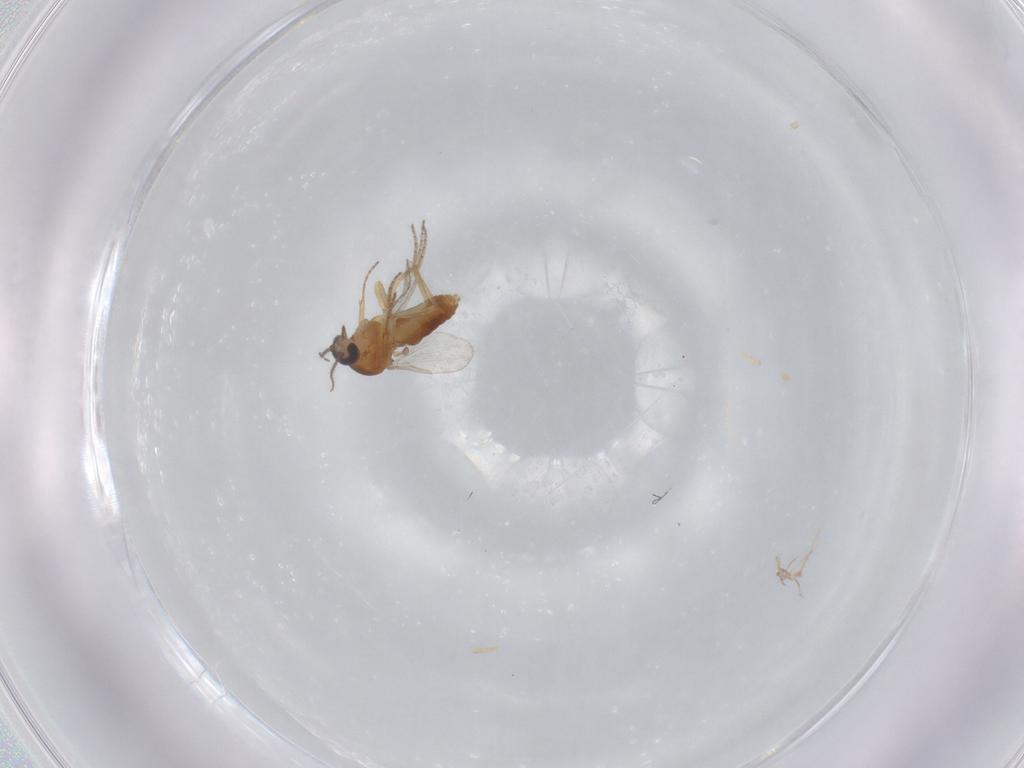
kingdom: Animalia
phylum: Arthropoda
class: Insecta
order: Diptera
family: Ceratopogonidae
